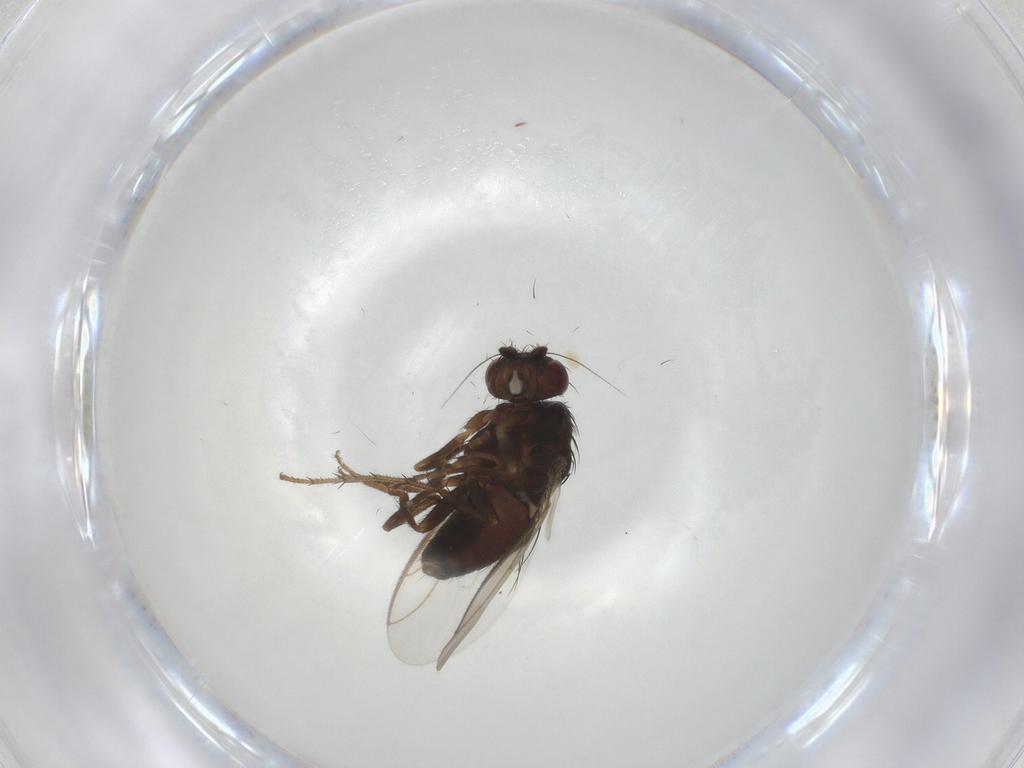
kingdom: Animalia
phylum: Arthropoda
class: Insecta
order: Diptera
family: Sphaeroceridae
